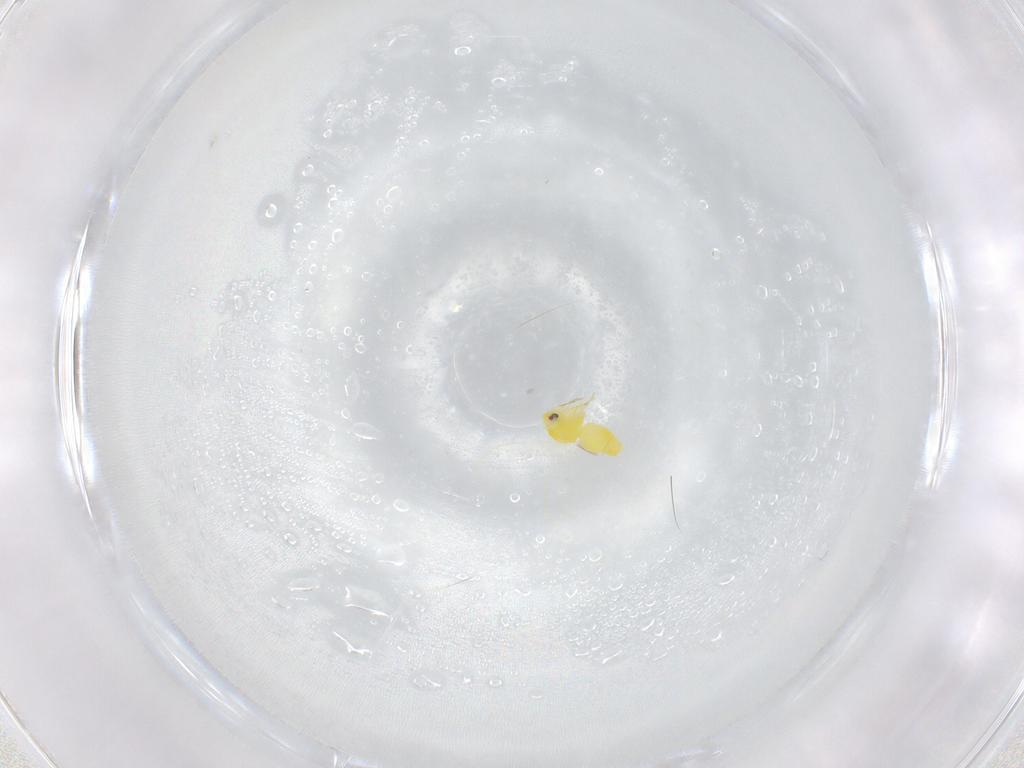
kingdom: Animalia
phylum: Arthropoda
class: Insecta
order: Hemiptera
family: Aleyrodidae
